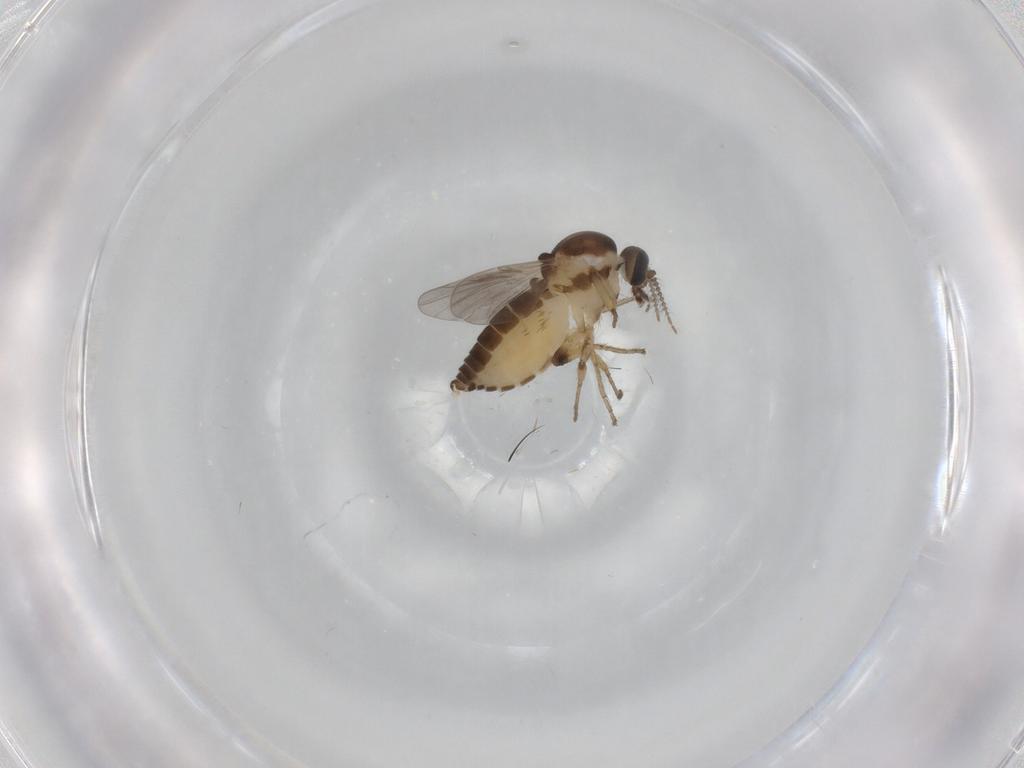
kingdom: Animalia
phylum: Arthropoda
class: Insecta
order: Diptera
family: Ceratopogonidae
